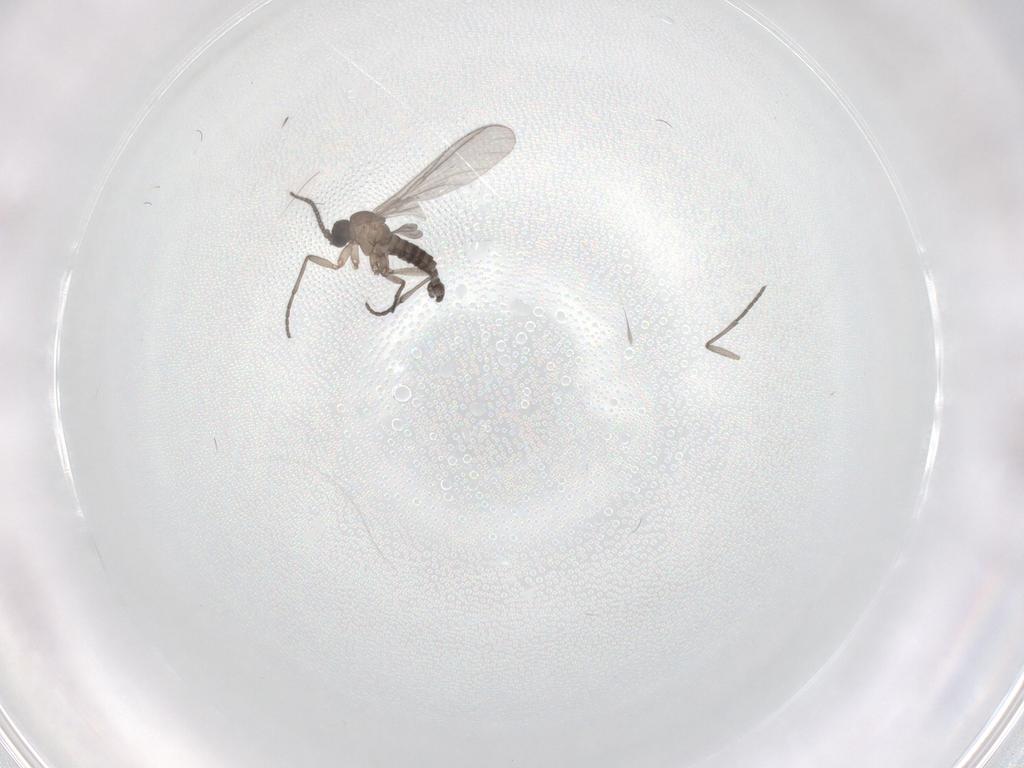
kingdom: Animalia
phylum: Arthropoda
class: Insecta
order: Diptera
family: Sciaridae
